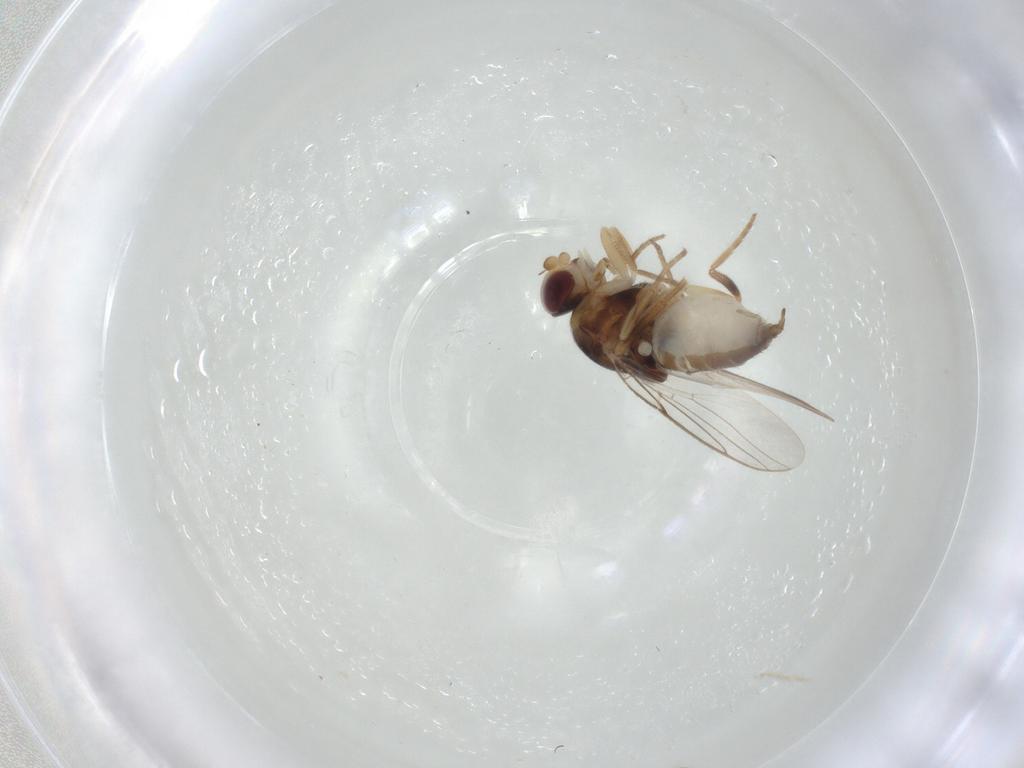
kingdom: Animalia
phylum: Arthropoda
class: Insecta
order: Diptera
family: Chloropidae
